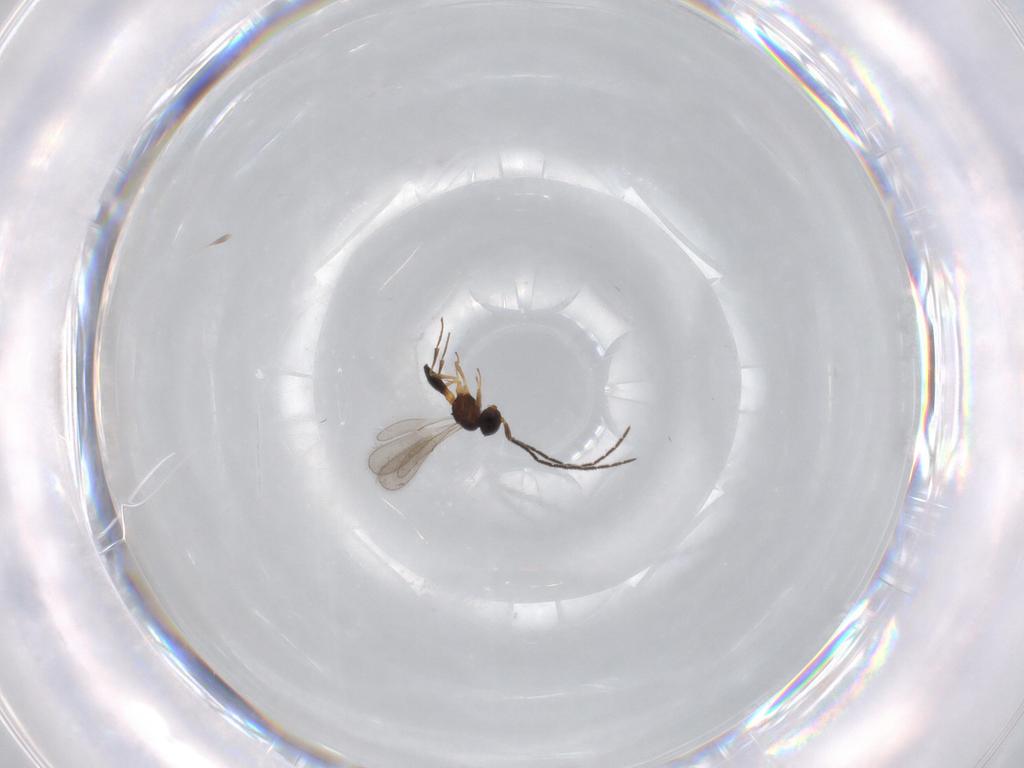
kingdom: Animalia
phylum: Arthropoda
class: Insecta
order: Hymenoptera
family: Scelionidae
